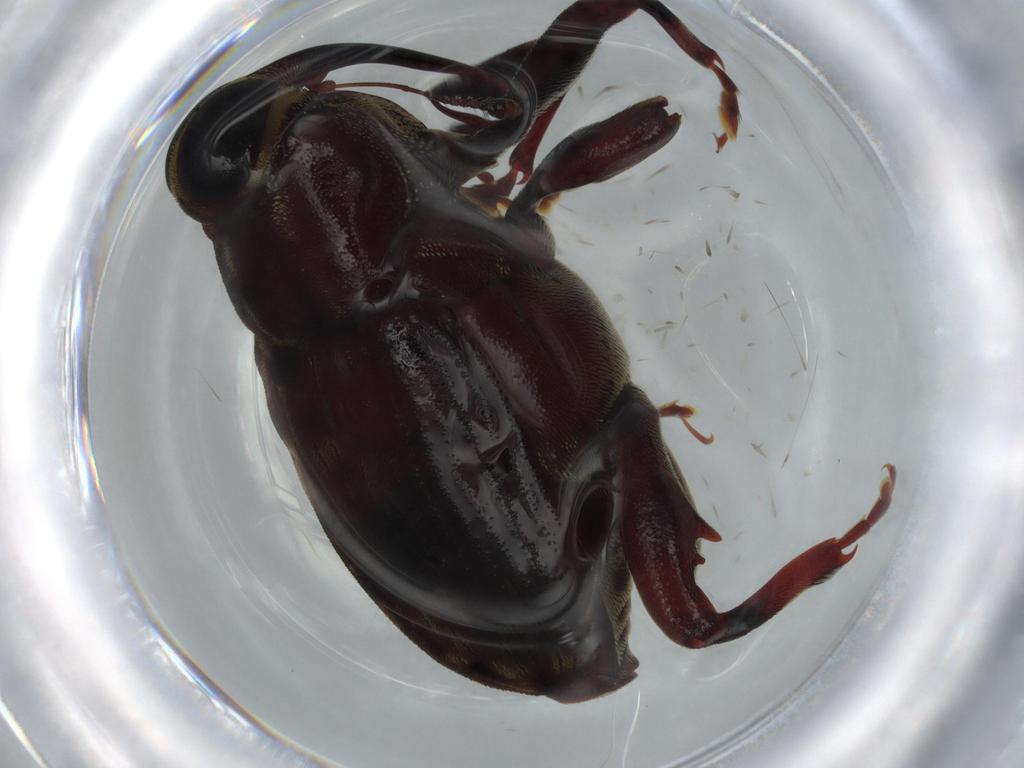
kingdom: Animalia
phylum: Arthropoda
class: Insecta
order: Coleoptera
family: Curculionidae
